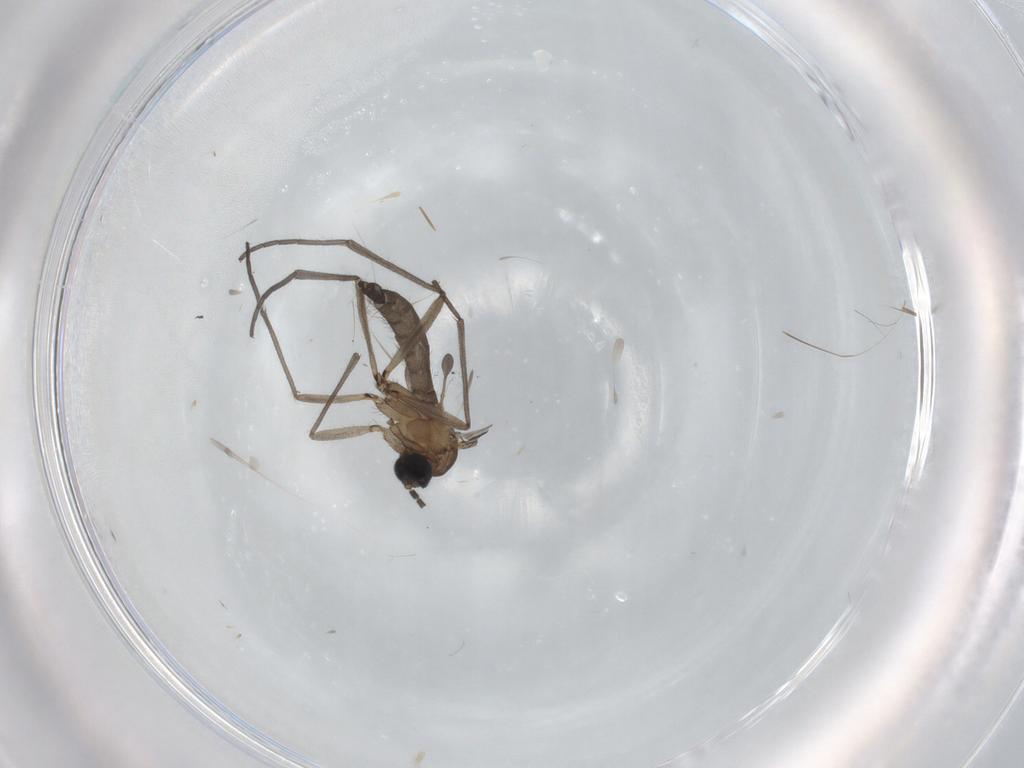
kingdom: Animalia
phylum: Arthropoda
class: Insecta
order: Diptera
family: Sciaridae
